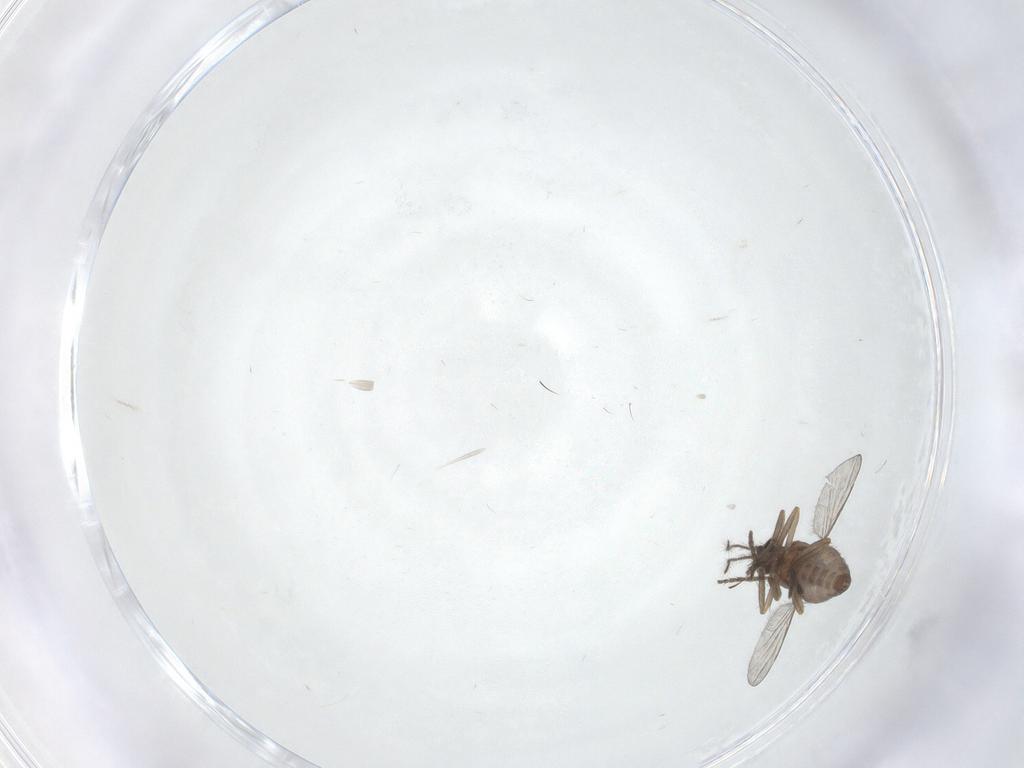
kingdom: Animalia
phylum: Arthropoda
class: Insecta
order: Diptera
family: Ceratopogonidae
